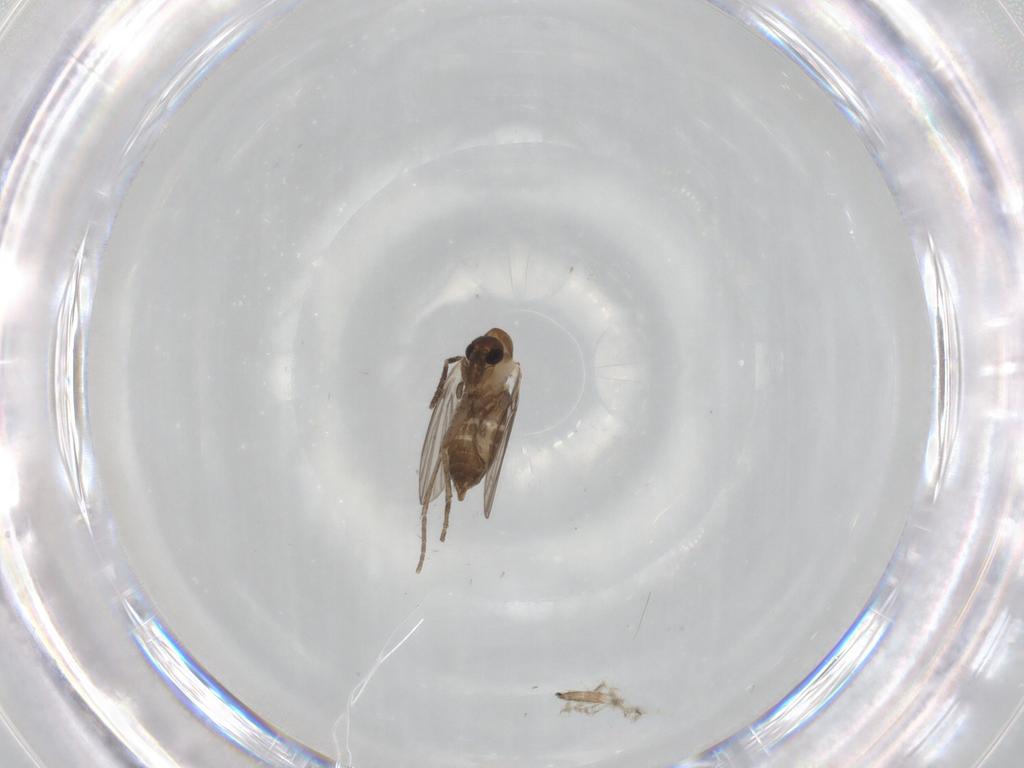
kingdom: Animalia
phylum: Arthropoda
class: Insecta
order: Diptera
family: Psychodidae
